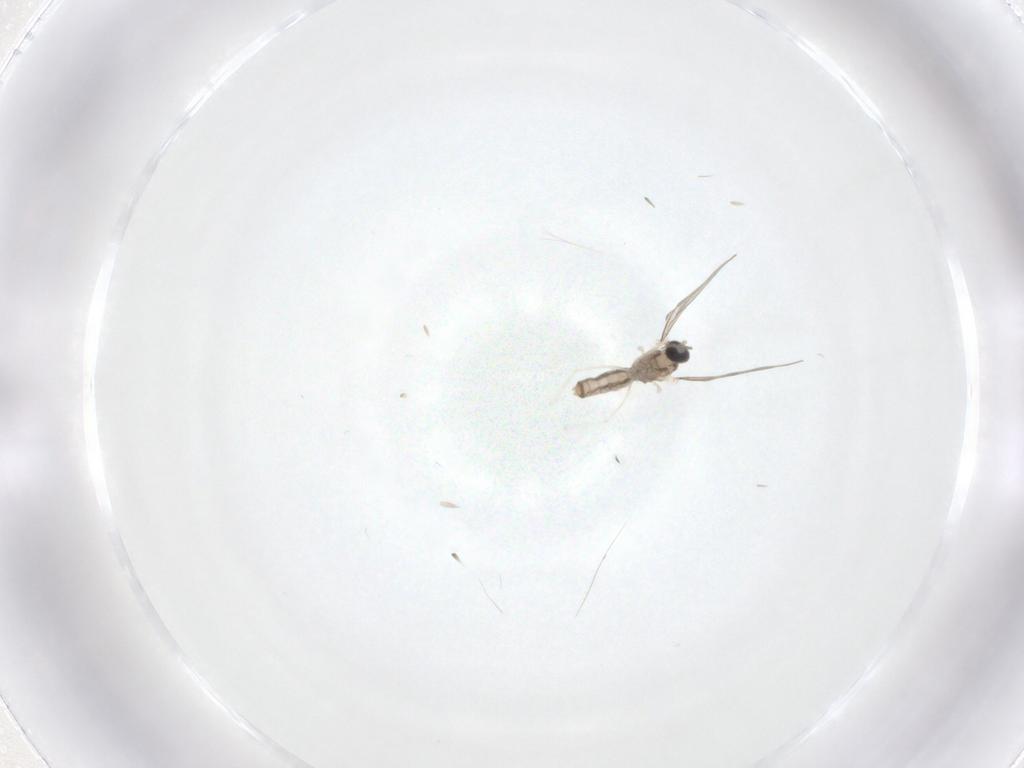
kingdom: Animalia
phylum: Arthropoda
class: Insecta
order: Diptera
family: Cecidomyiidae
